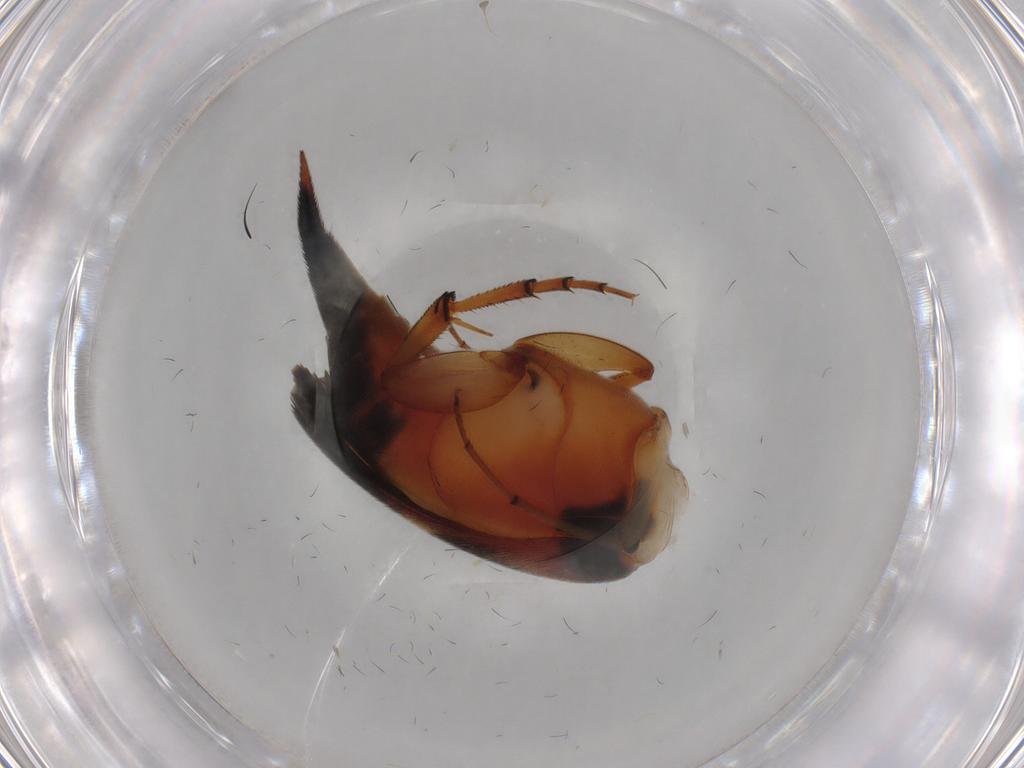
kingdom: Animalia
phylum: Arthropoda
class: Insecta
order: Coleoptera
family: Mordellidae
